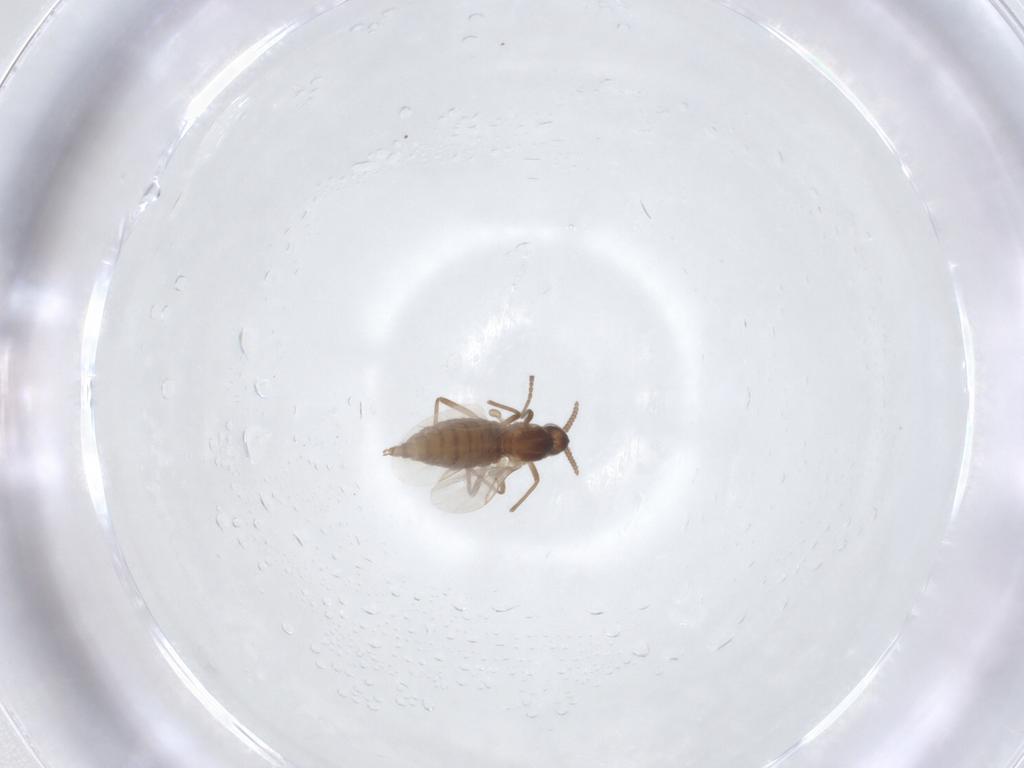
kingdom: Animalia
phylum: Arthropoda
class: Insecta
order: Diptera
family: Cecidomyiidae
